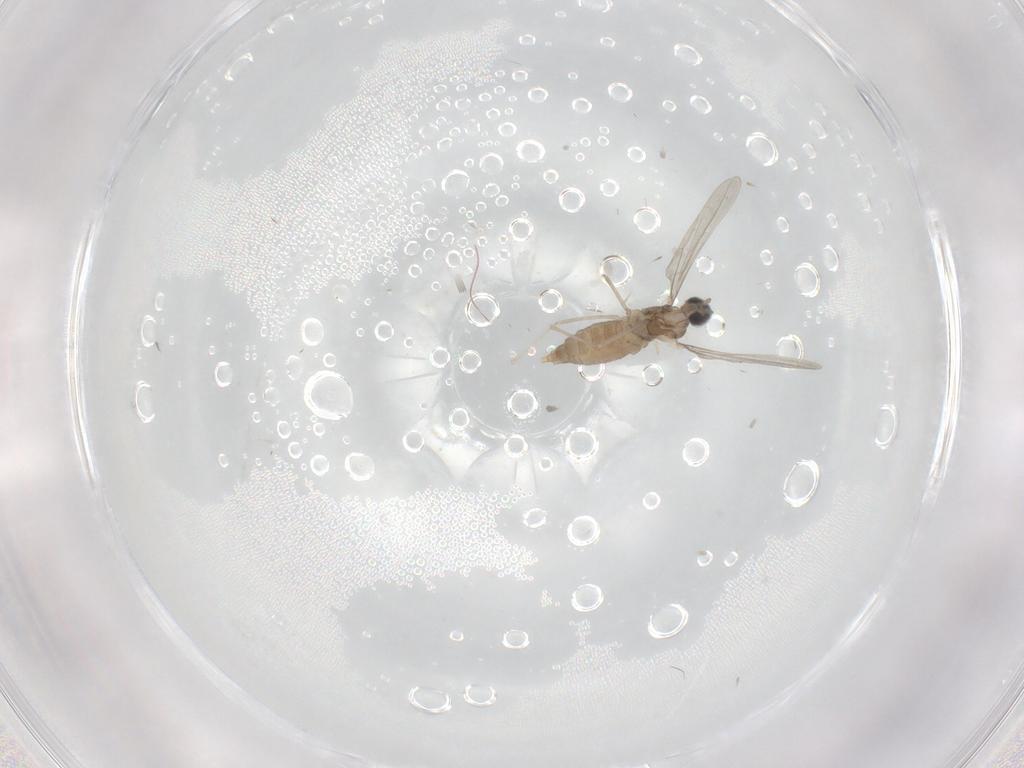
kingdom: Animalia
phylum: Arthropoda
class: Insecta
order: Diptera
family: Cecidomyiidae
